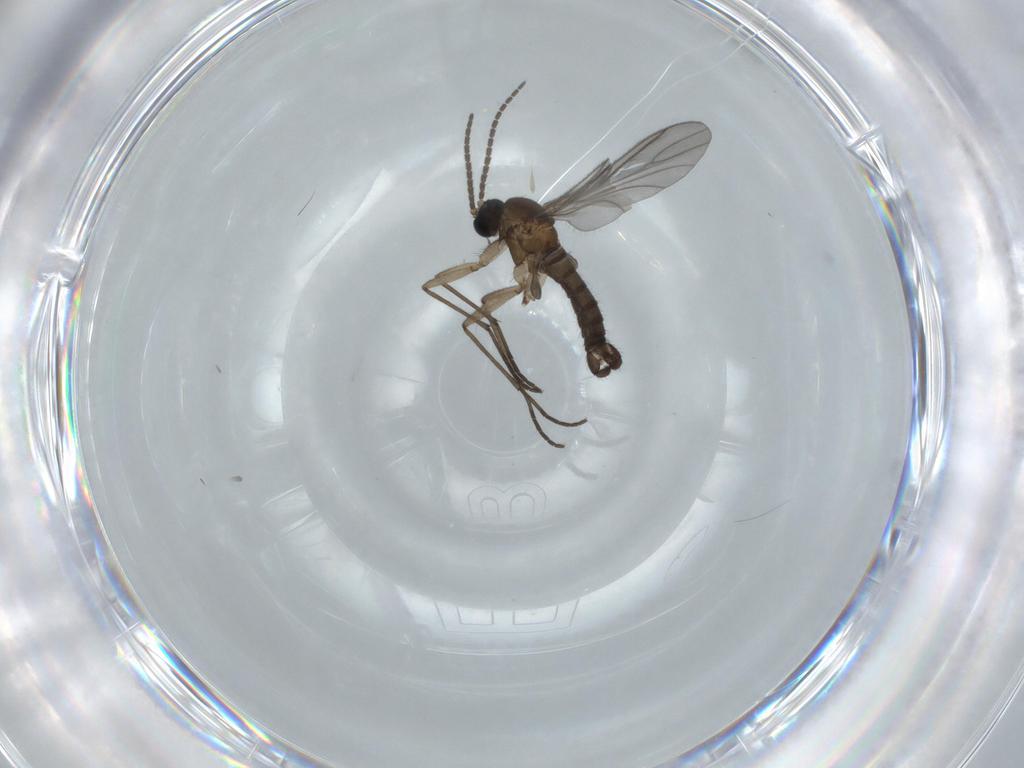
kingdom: Animalia
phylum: Arthropoda
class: Insecta
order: Diptera
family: Sciaridae
